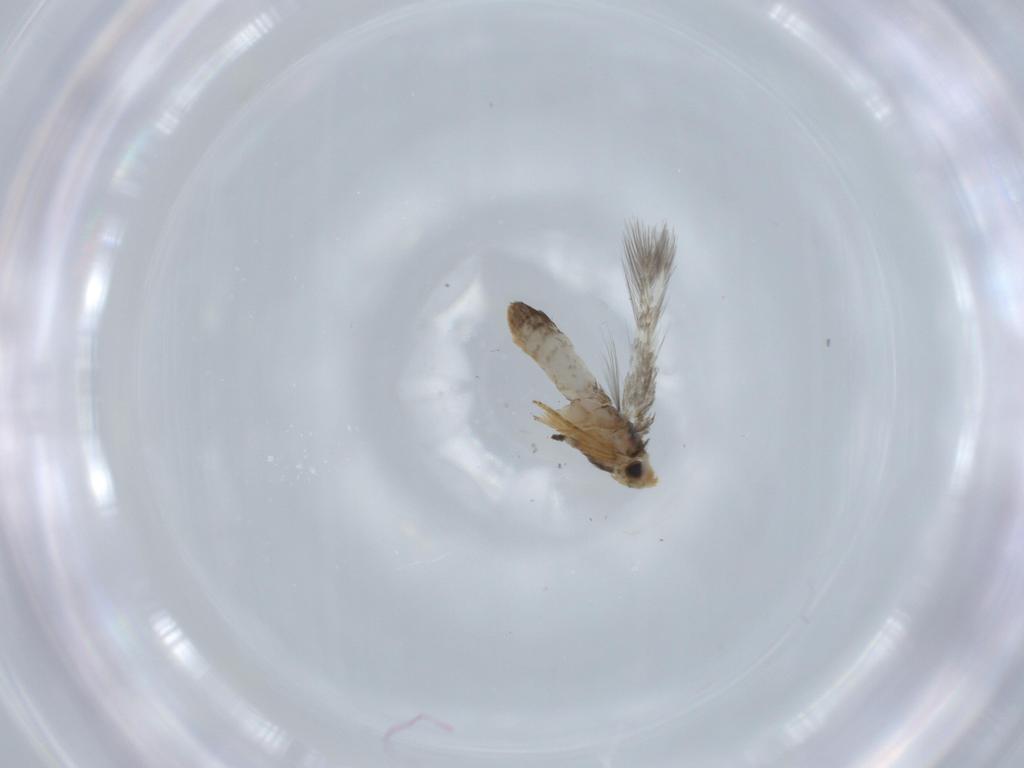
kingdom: Animalia
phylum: Arthropoda
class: Insecta
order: Lepidoptera
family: Nepticulidae
